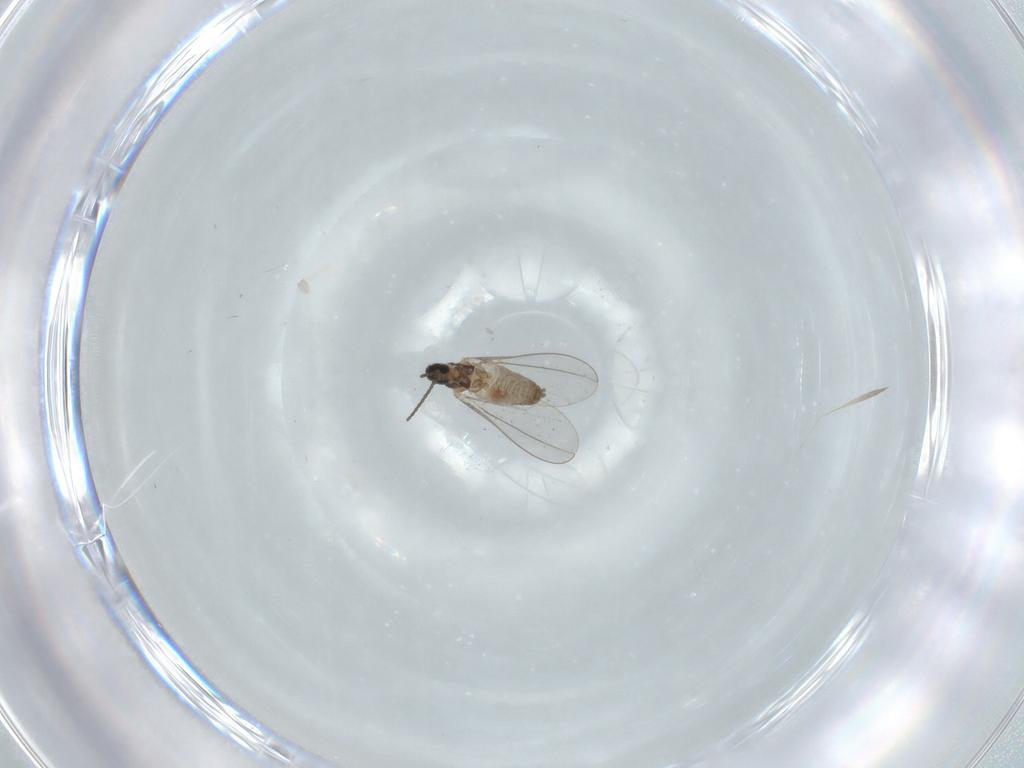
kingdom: Animalia
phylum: Arthropoda
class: Insecta
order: Diptera
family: Cecidomyiidae
